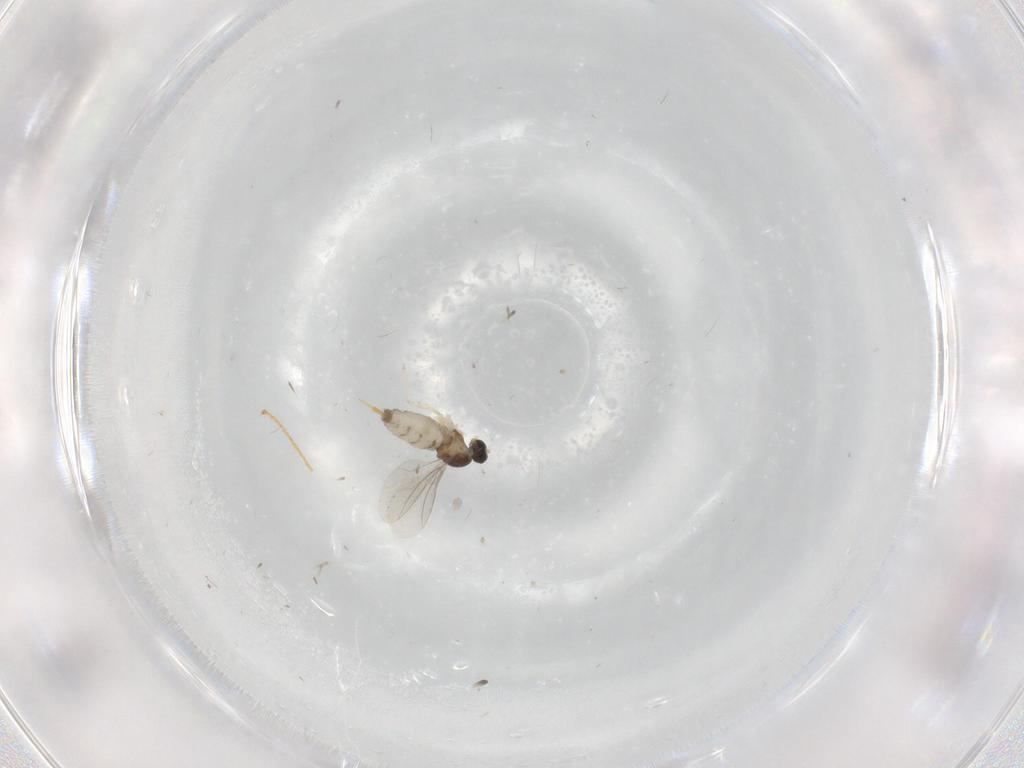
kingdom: Animalia
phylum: Arthropoda
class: Insecta
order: Diptera
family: Cecidomyiidae
